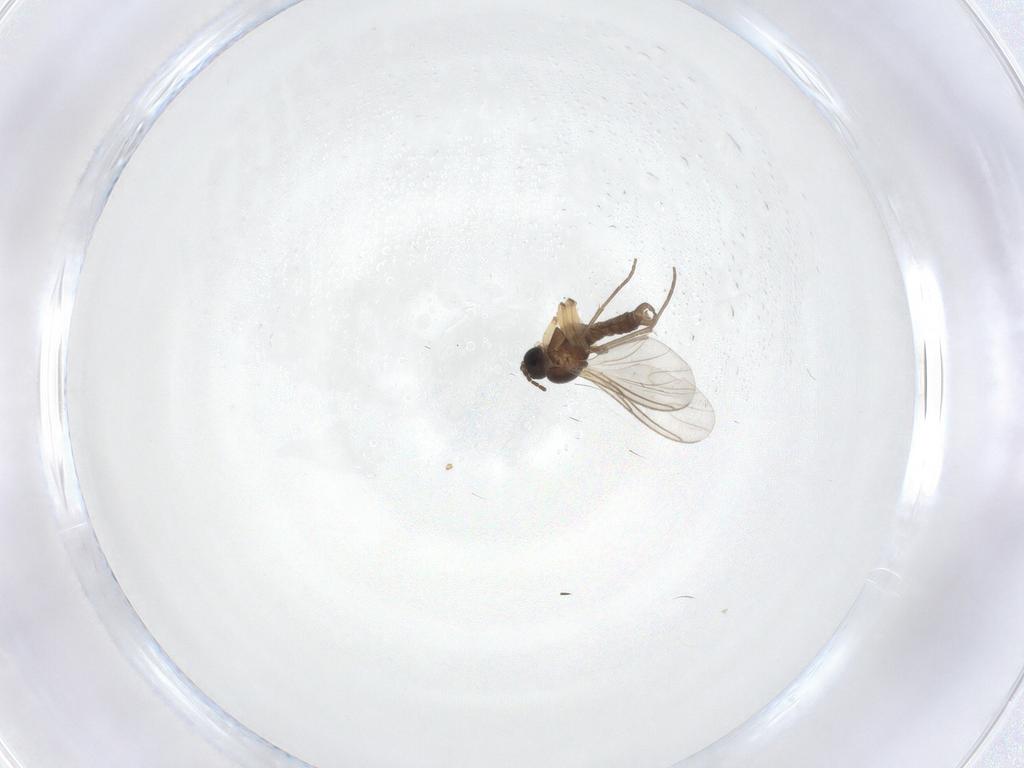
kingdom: Animalia
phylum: Arthropoda
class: Insecta
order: Diptera
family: Sciaridae
